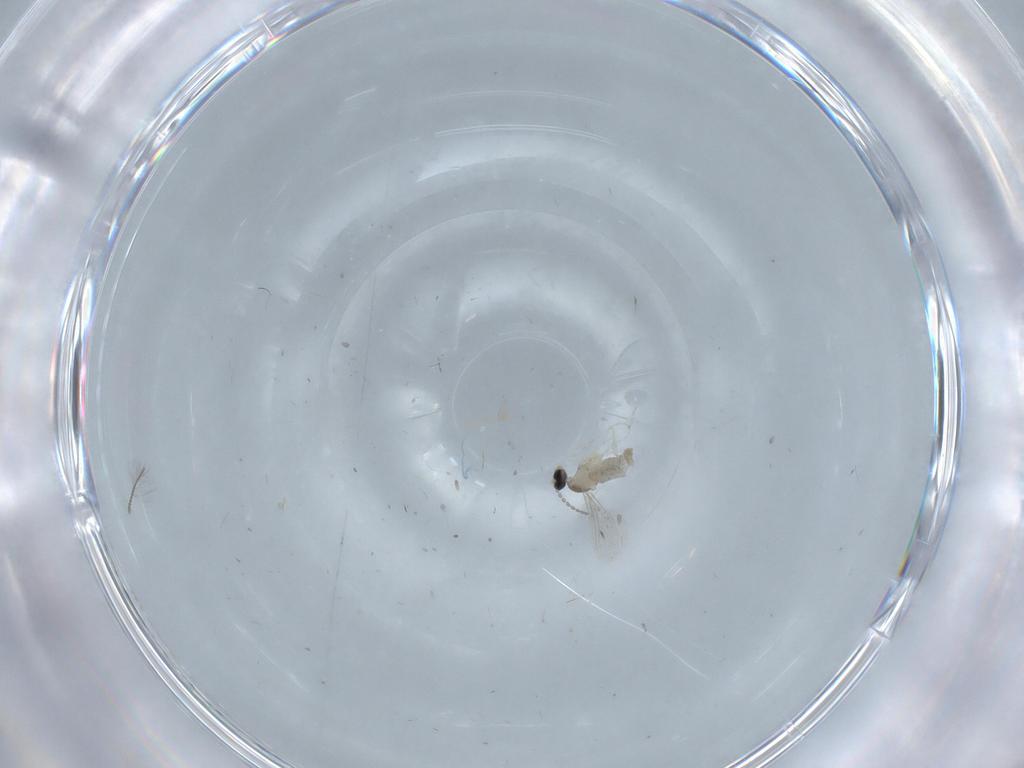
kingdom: Animalia
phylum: Arthropoda
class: Insecta
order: Diptera
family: Cecidomyiidae
